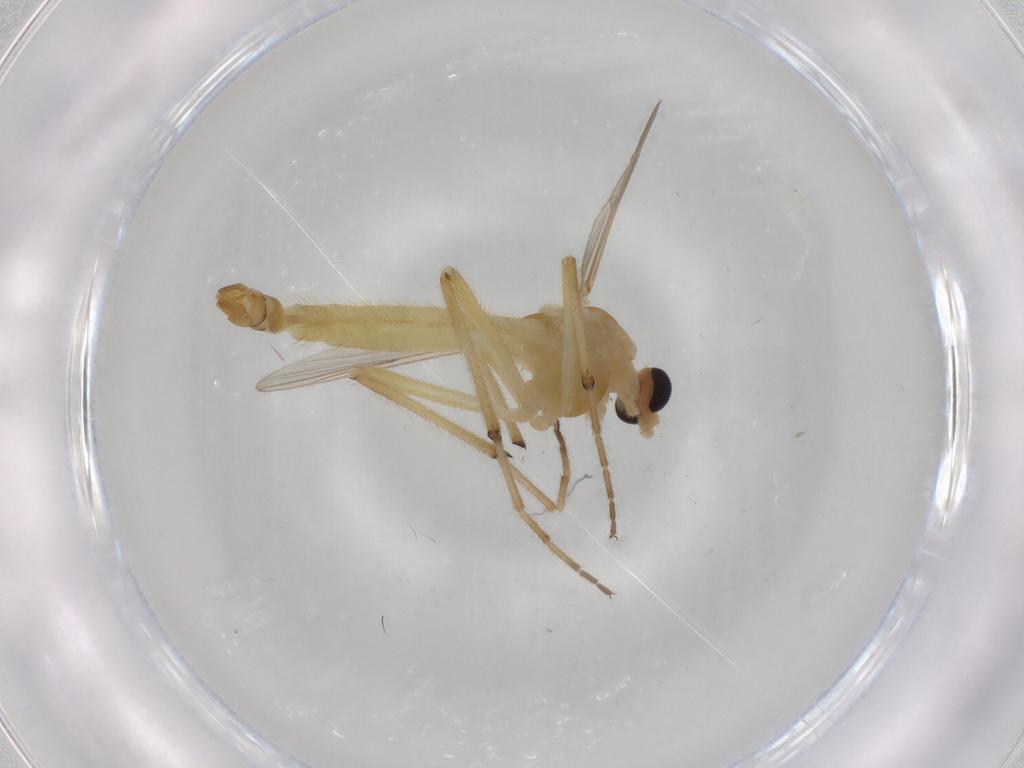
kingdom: Animalia
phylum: Arthropoda
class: Insecta
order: Diptera
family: Cecidomyiidae
